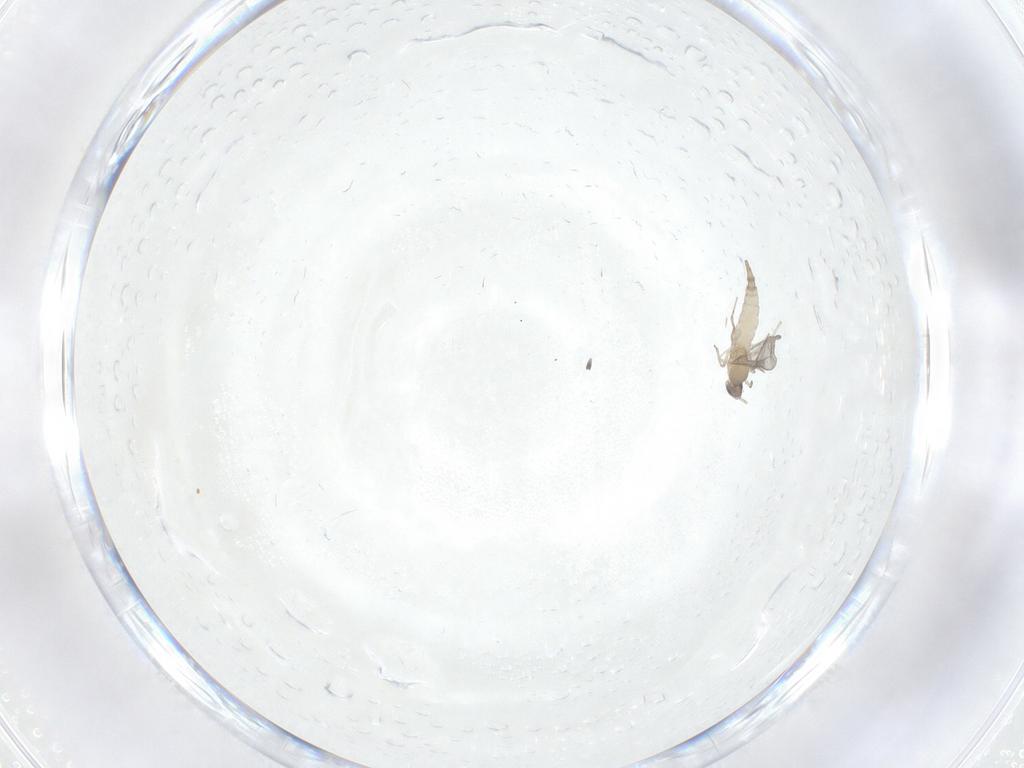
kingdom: Animalia
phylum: Arthropoda
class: Insecta
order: Diptera
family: Cecidomyiidae
